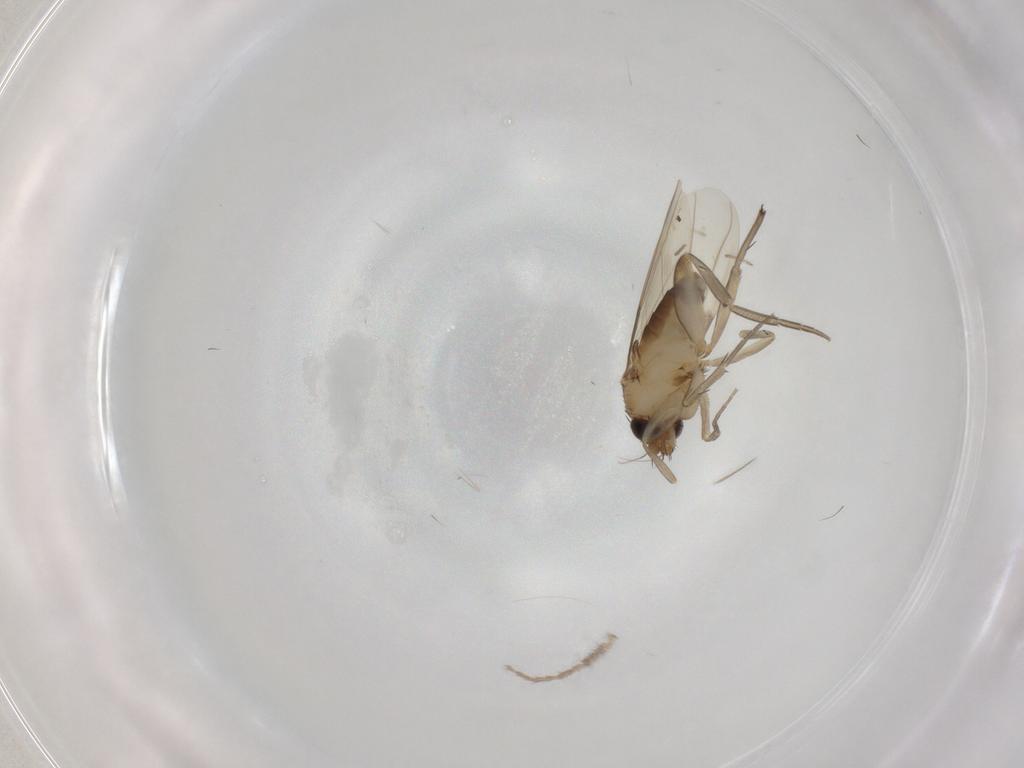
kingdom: Animalia
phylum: Arthropoda
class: Insecta
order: Diptera
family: Phoridae
